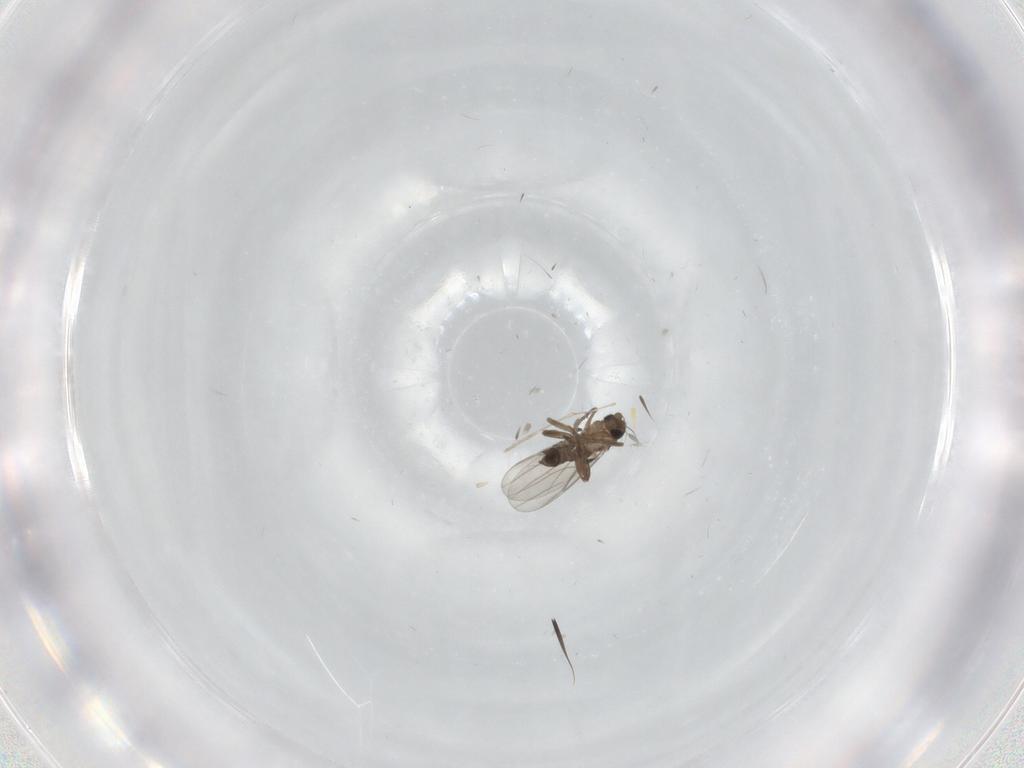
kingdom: Animalia
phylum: Arthropoda
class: Insecta
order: Diptera
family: Cecidomyiidae
